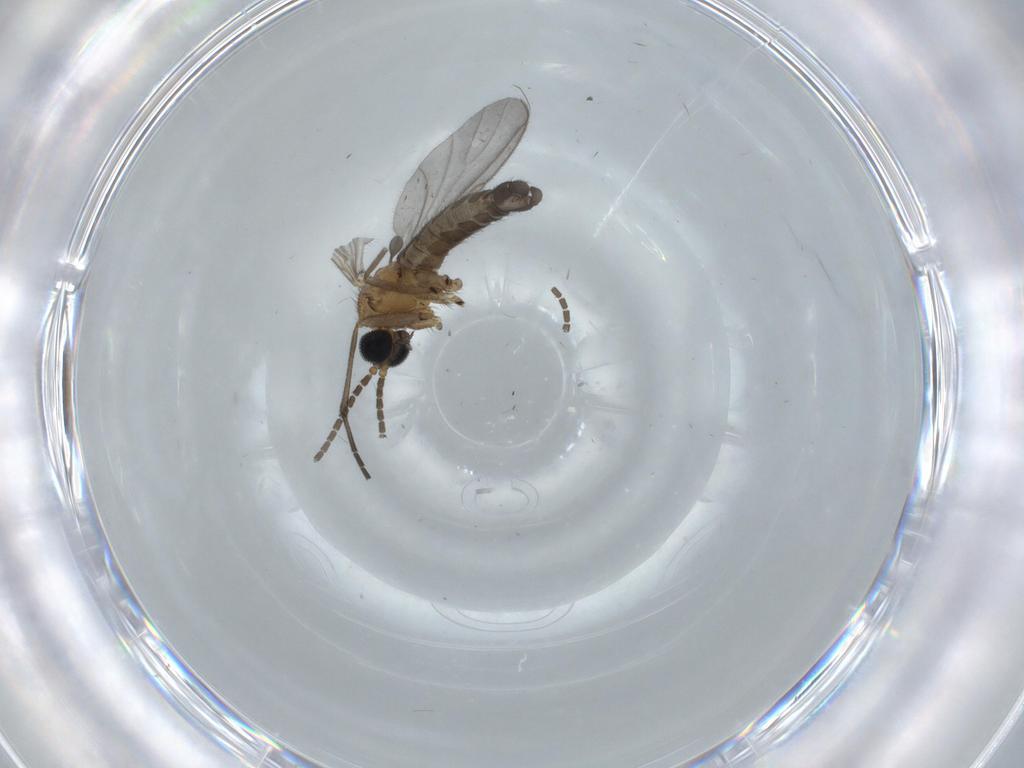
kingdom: Animalia
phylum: Arthropoda
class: Insecta
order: Diptera
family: Sciaridae
